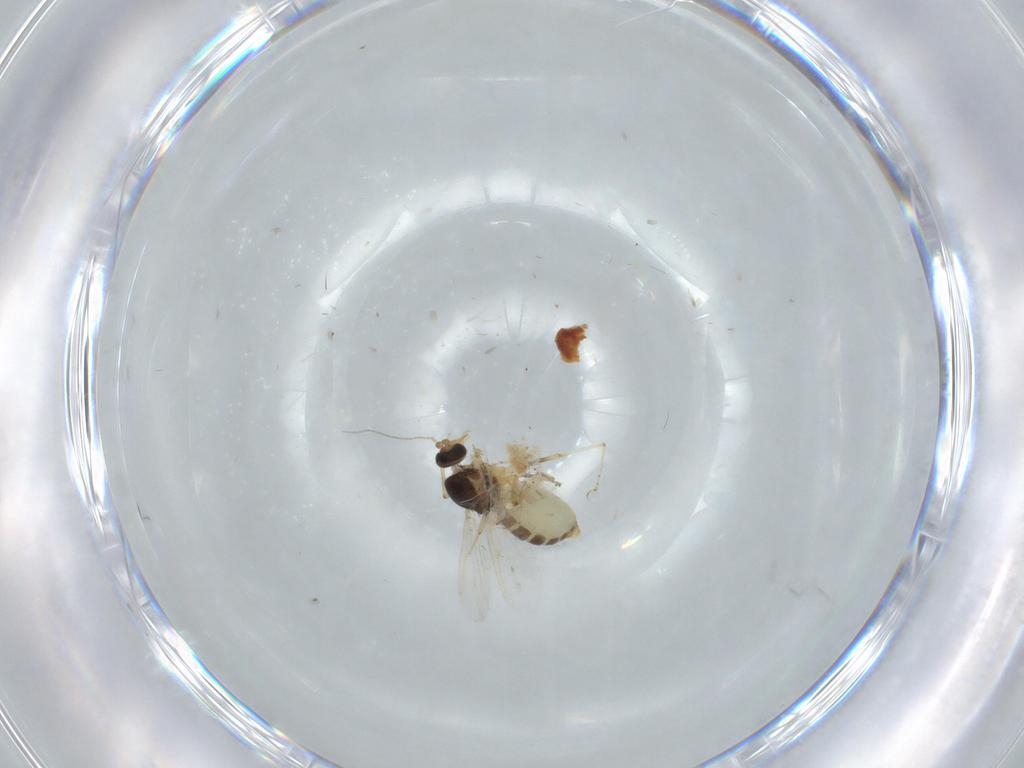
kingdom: Animalia
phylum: Arthropoda
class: Insecta
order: Diptera
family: Ceratopogonidae
